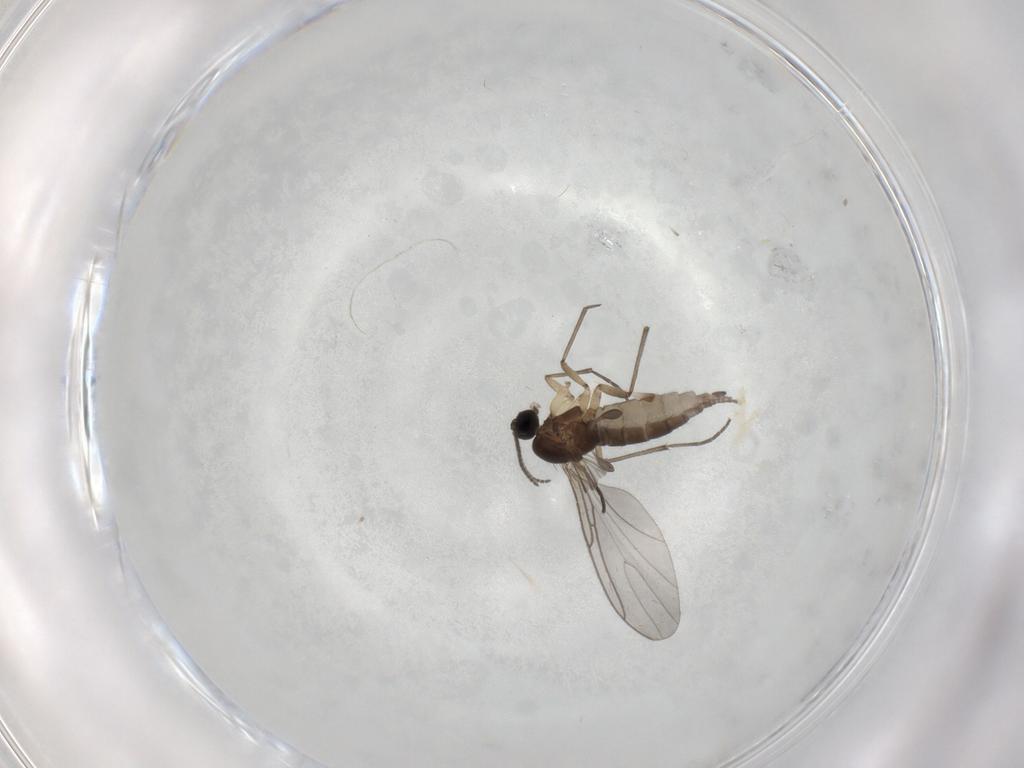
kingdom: Animalia
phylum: Arthropoda
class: Insecta
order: Diptera
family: Sciaridae
